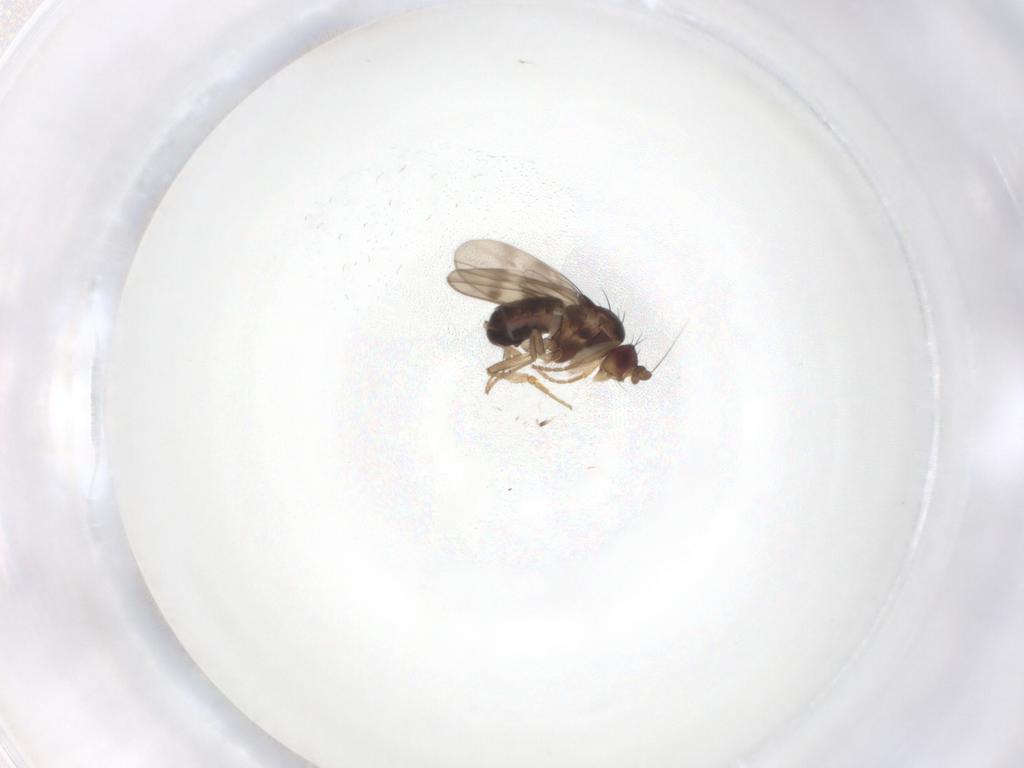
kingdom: Animalia
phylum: Arthropoda
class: Insecta
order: Diptera
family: Sphaeroceridae
